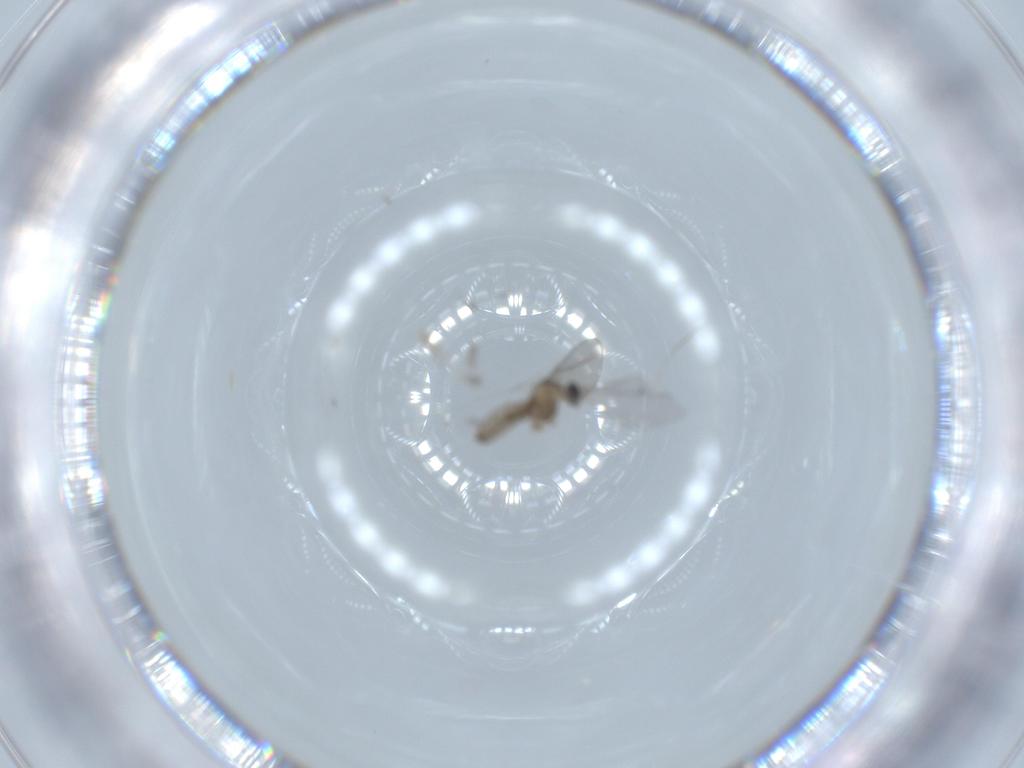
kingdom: Animalia
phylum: Arthropoda
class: Insecta
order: Diptera
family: Cecidomyiidae
